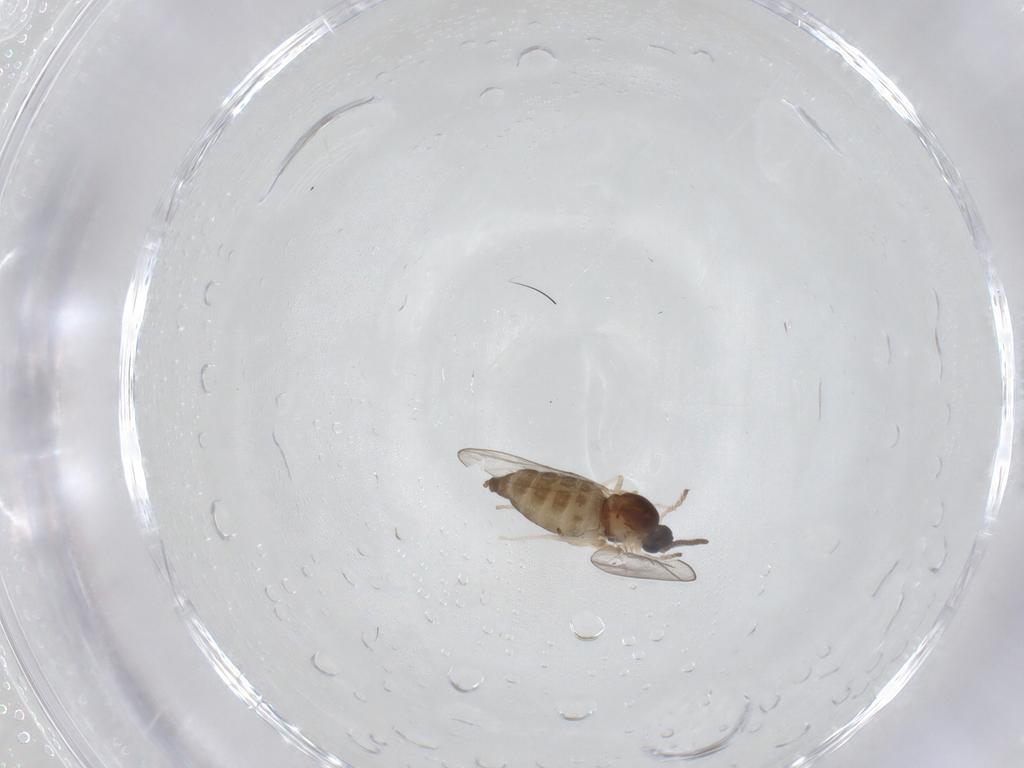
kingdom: Animalia
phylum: Arthropoda
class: Insecta
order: Diptera
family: Cecidomyiidae
